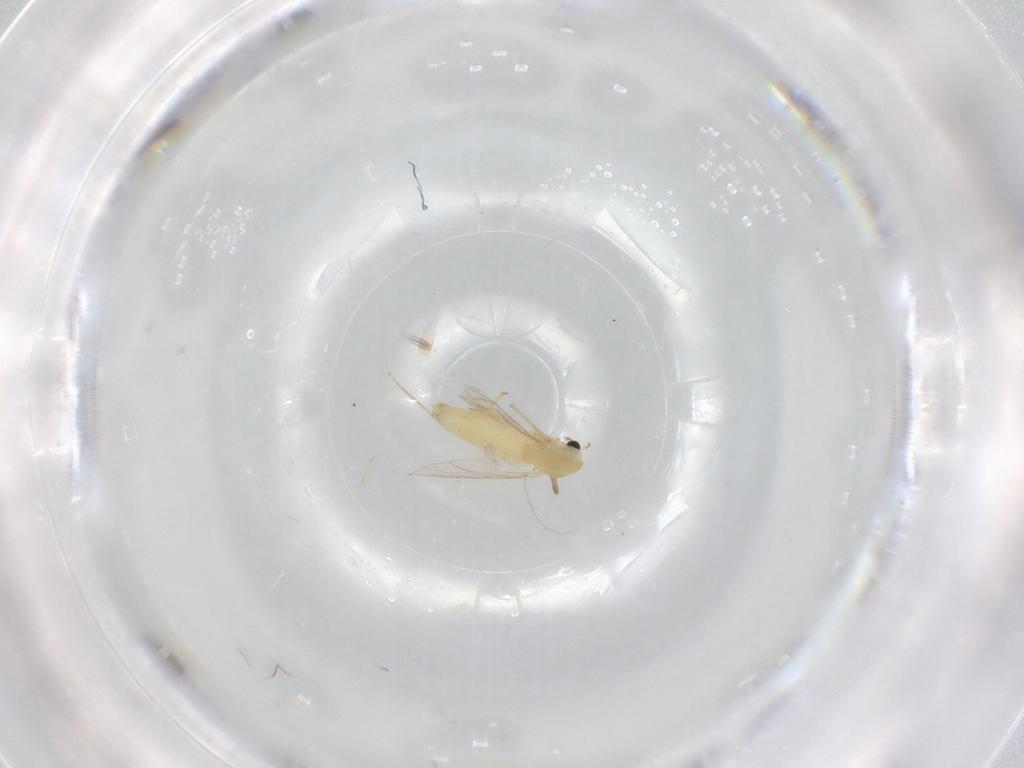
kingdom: Animalia
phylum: Arthropoda
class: Insecta
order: Diptera
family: Chironomidae
